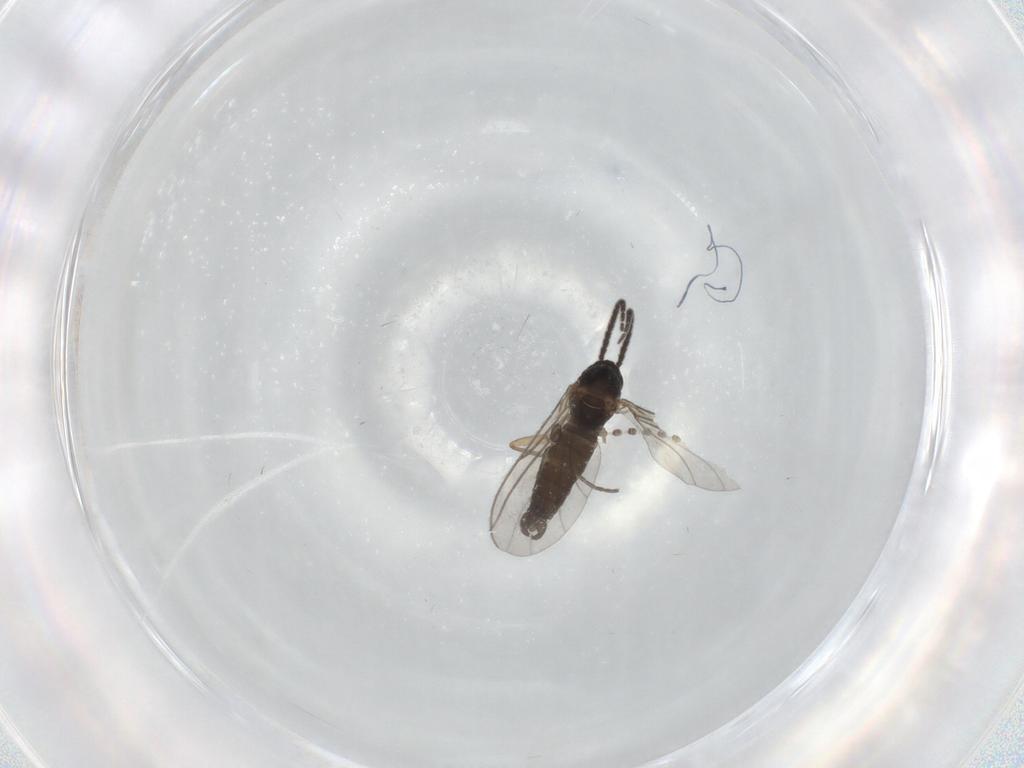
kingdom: Animalia
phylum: Arthropoda
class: Insecta
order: Diptera
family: Sciaridae
